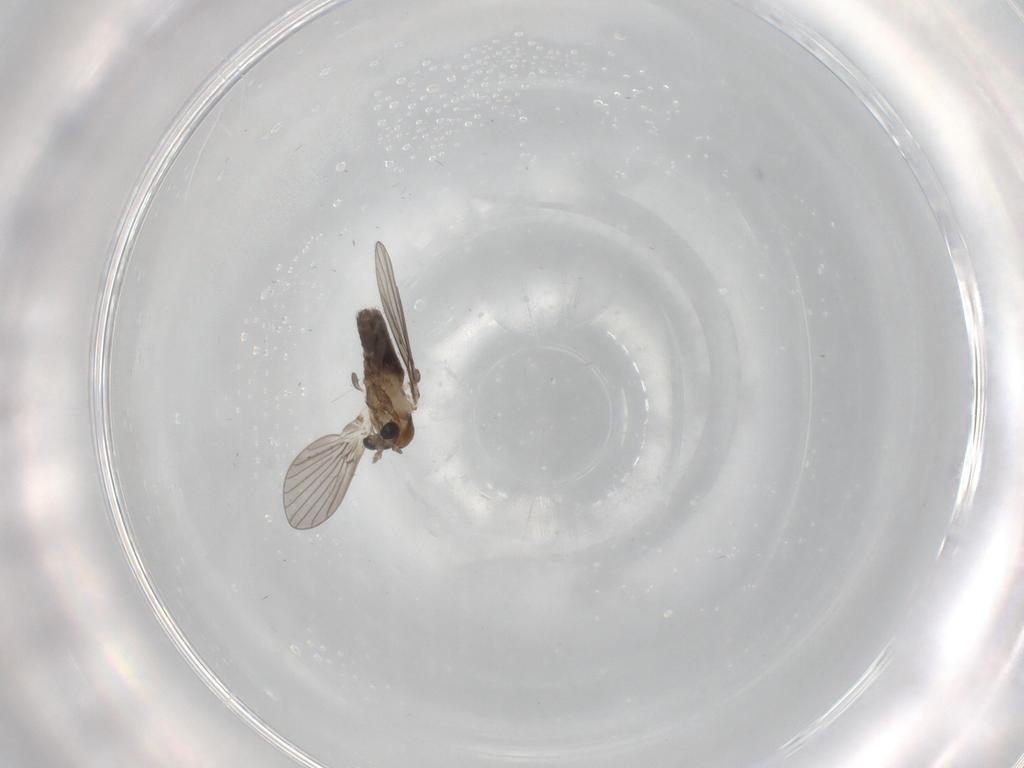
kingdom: Animalia
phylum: Arthropoda
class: Insecta
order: Diptera
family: Psychodidae
